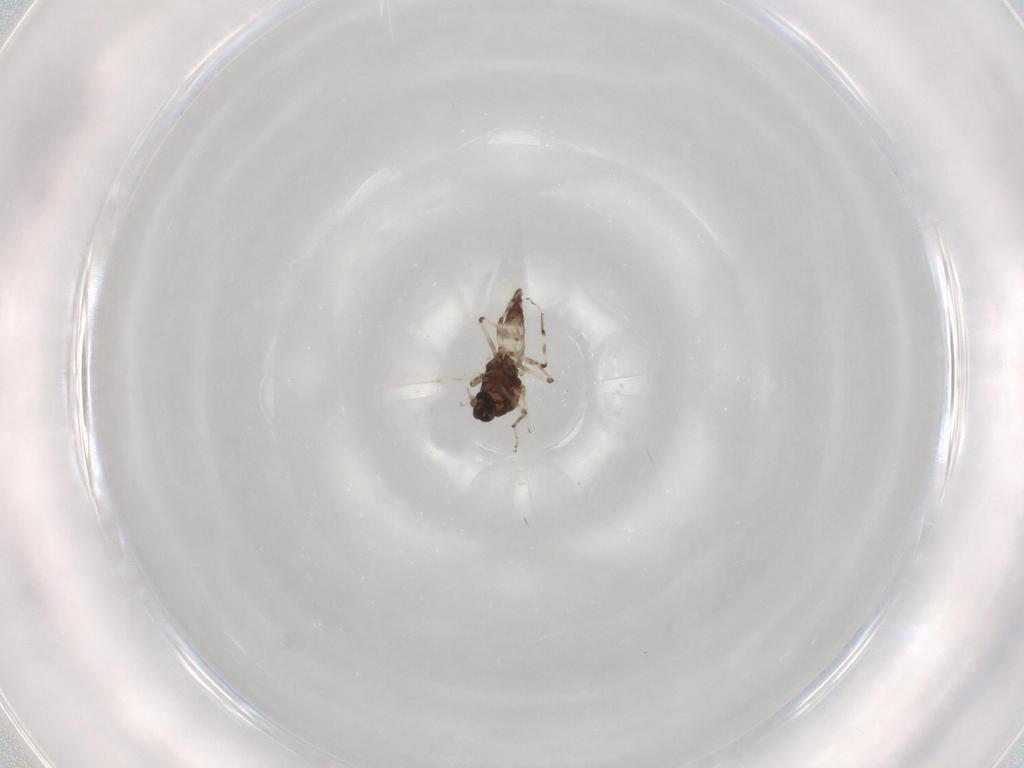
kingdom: Animalia
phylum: Arthropoda
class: Insecta
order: Diptera
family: Ceratopogonidae
